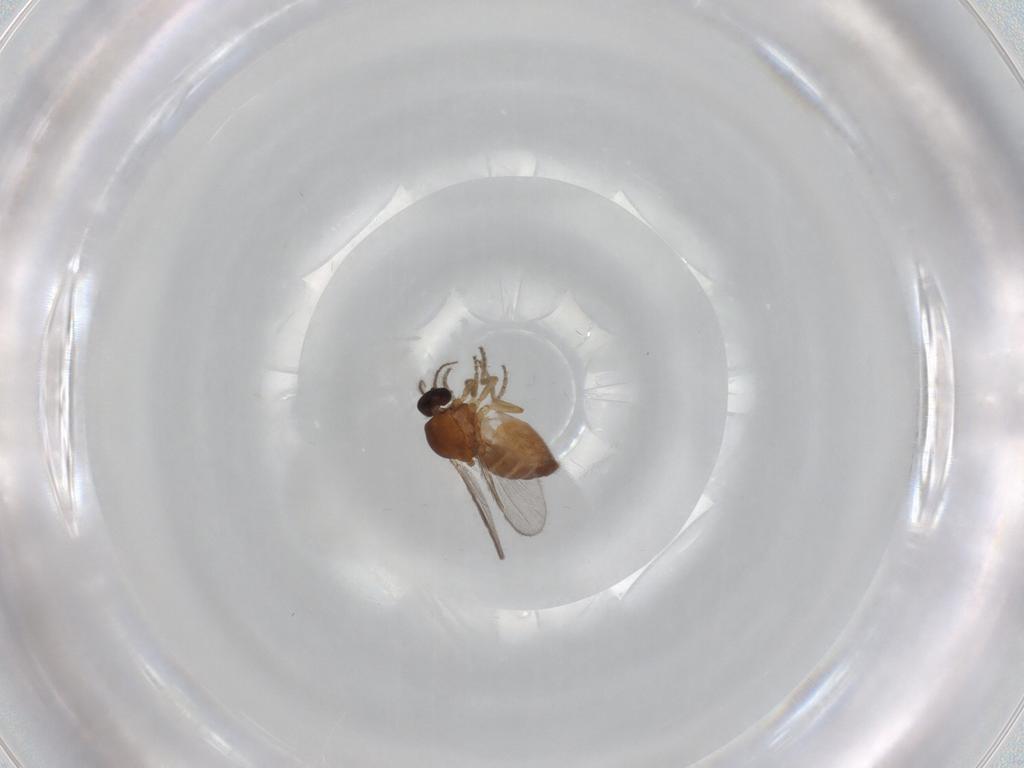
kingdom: Animalia
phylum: Arthropoda
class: Insecta
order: Diptera
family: Ceratopogonidae
